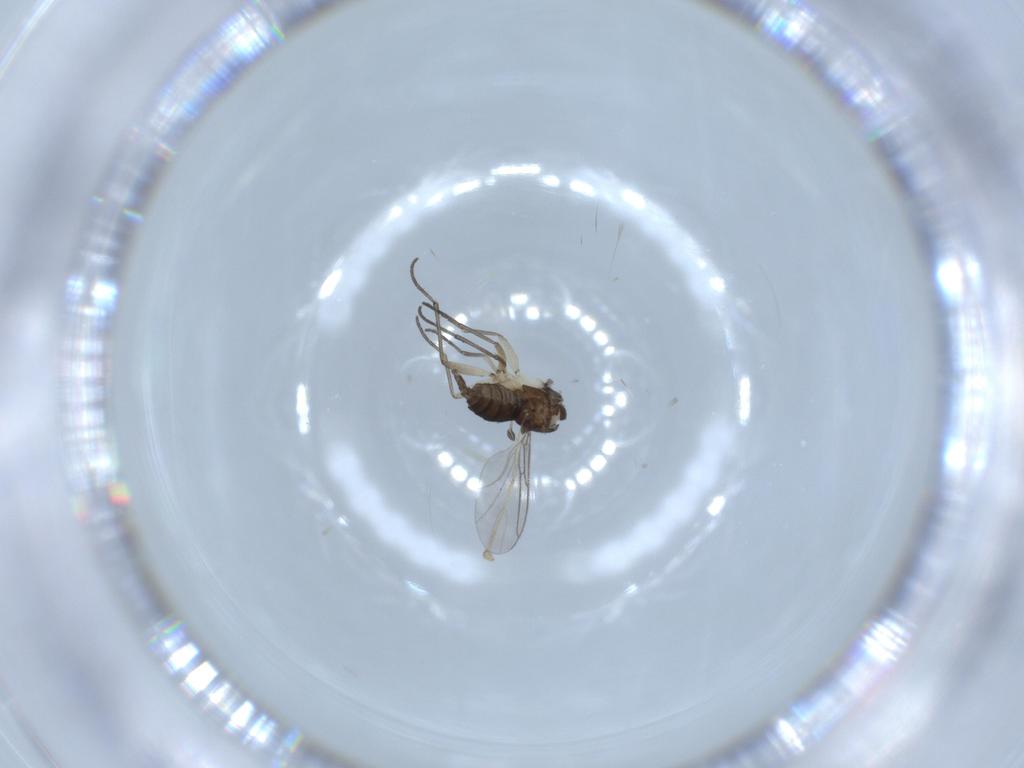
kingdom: Animalia
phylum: Arthropoda
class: Insecta
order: Diptera
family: Sciaridae
